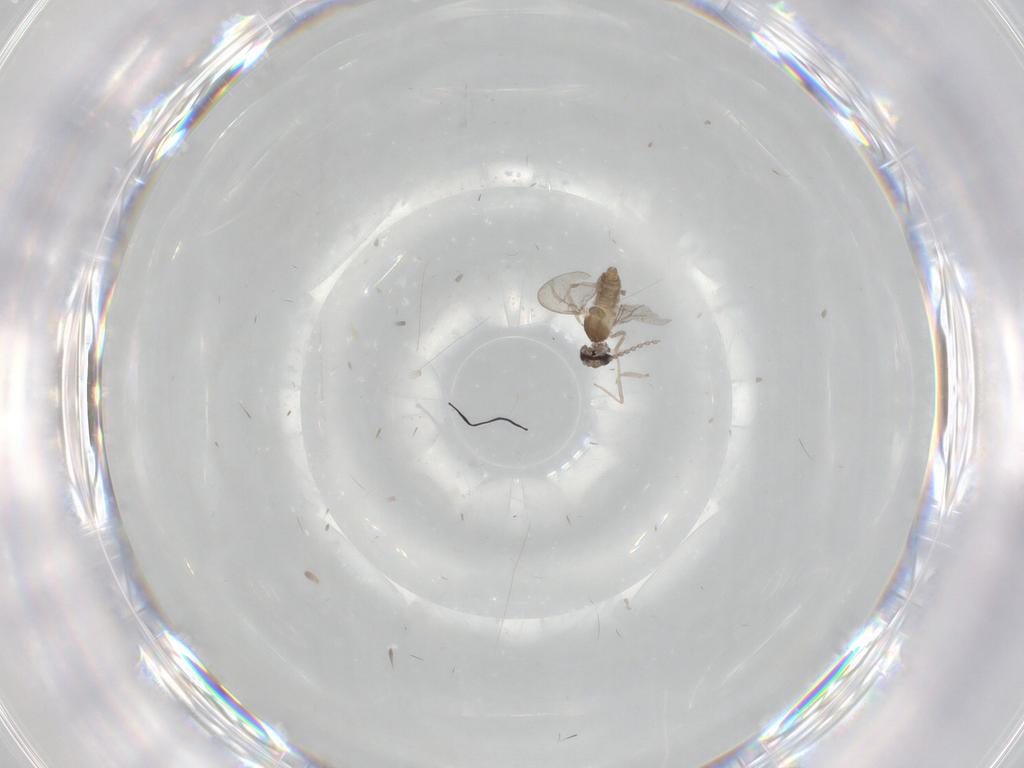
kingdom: Animalia
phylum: Arthropoda
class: Insecta
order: Diptera
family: Cecidomyiidae
